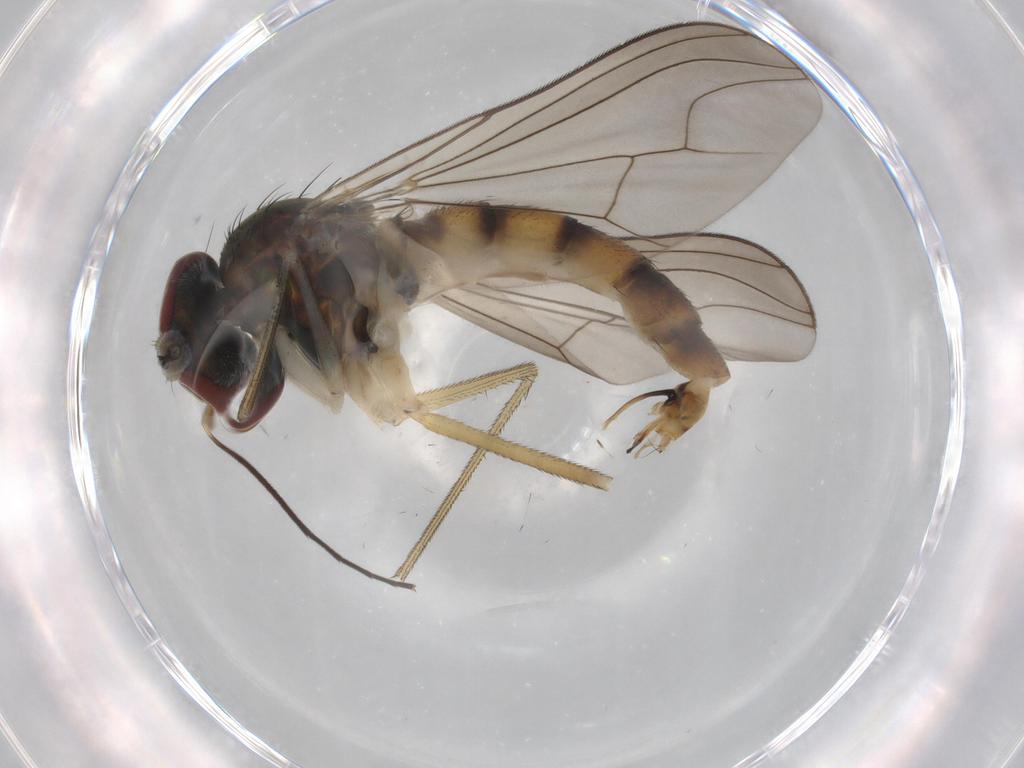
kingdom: Animalia
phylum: Arthropoda
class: Insecta
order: Diptera
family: Dolichopodidae
